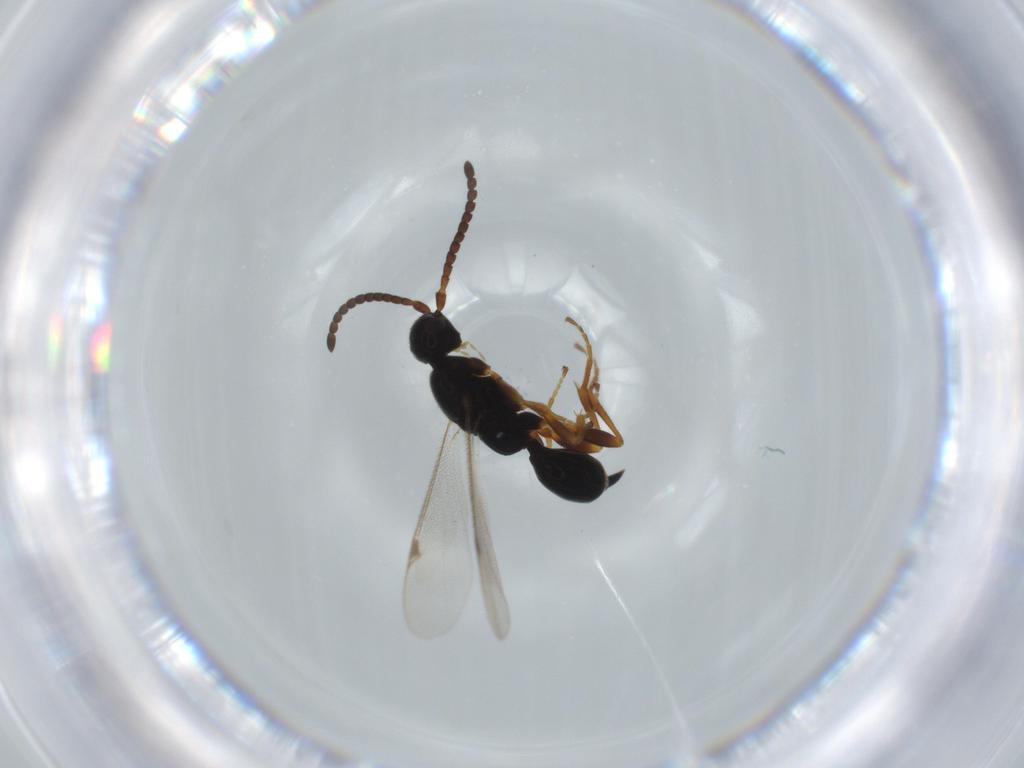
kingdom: Animalia
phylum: Arthropoda
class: Insecta
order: Hymenoptera
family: Proctotrupidae
